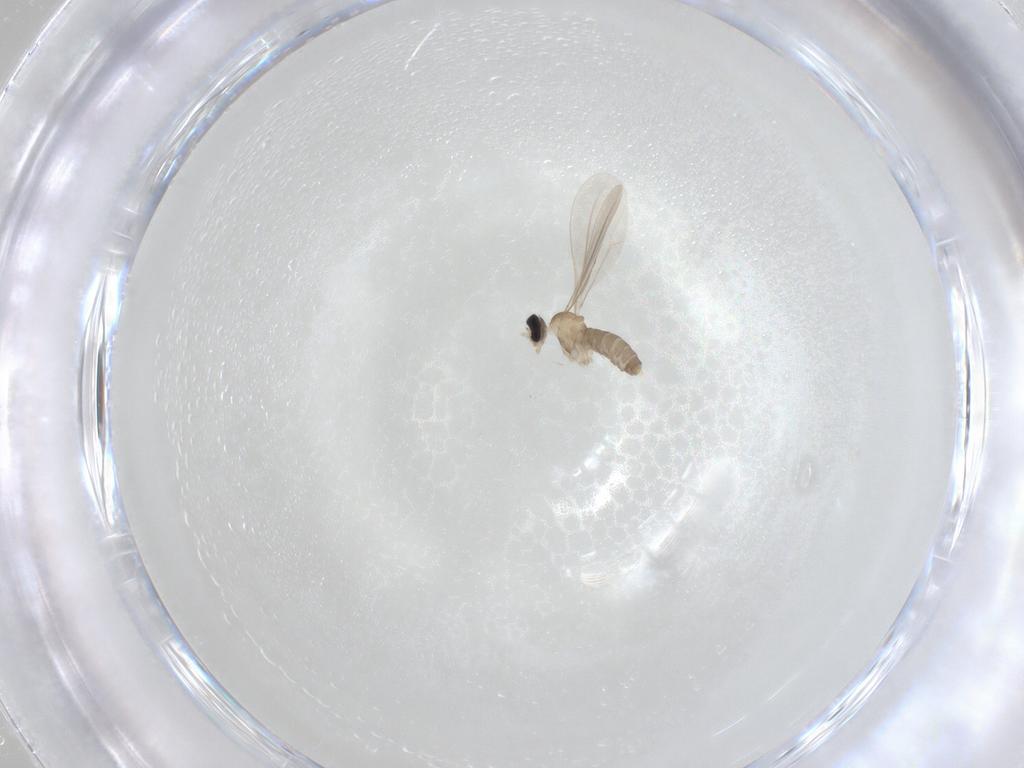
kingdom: Animalia
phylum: Arthropoda
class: Insecta
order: Diptera
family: Cecidomyiidae
